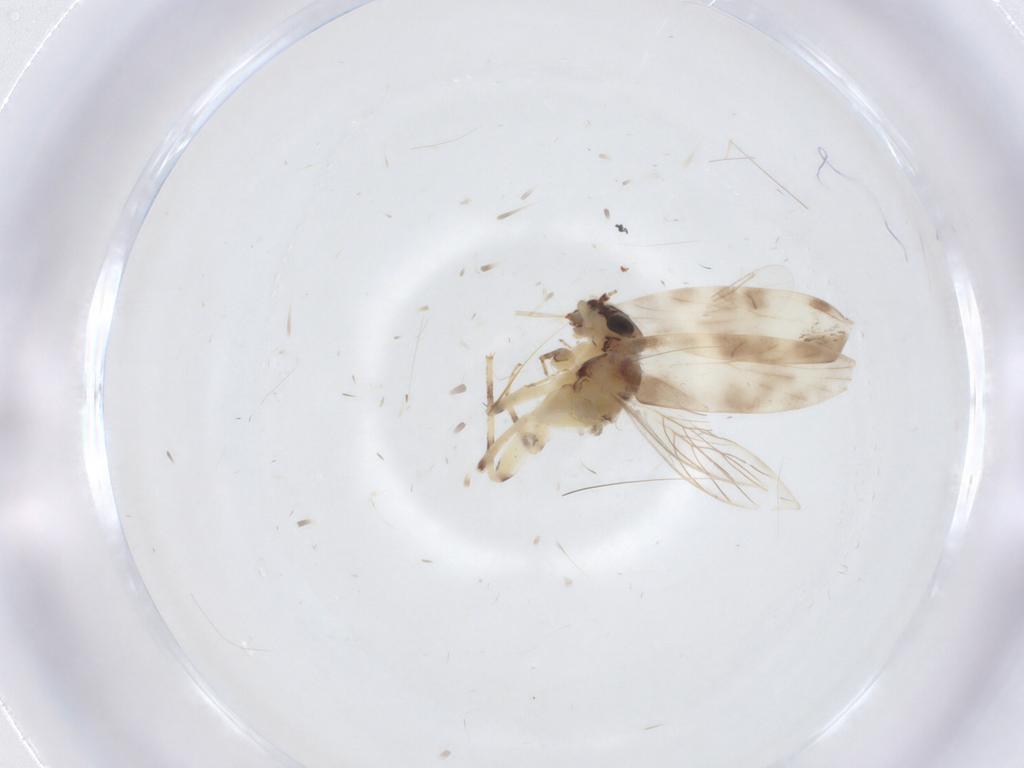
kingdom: Animalia
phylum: Arthropoda
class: Insecta
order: Psocodea
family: Lepidopsocidae
